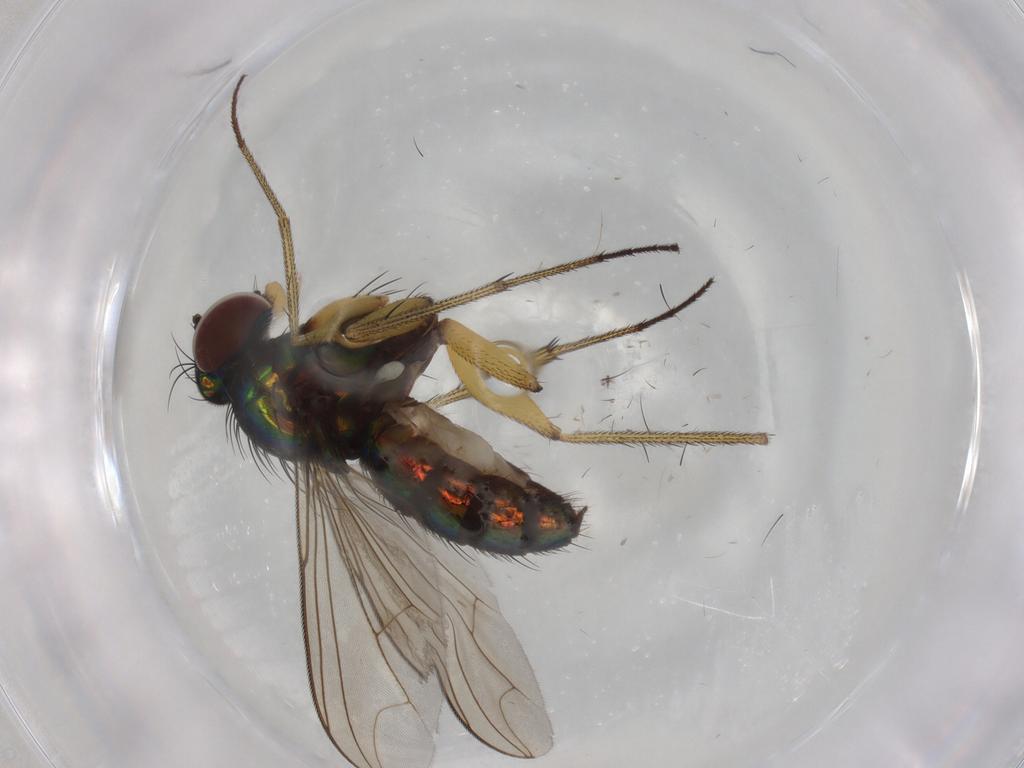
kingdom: Animalia
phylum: Arthropoda
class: Insecta
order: Diptera
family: Dolichopodidae
